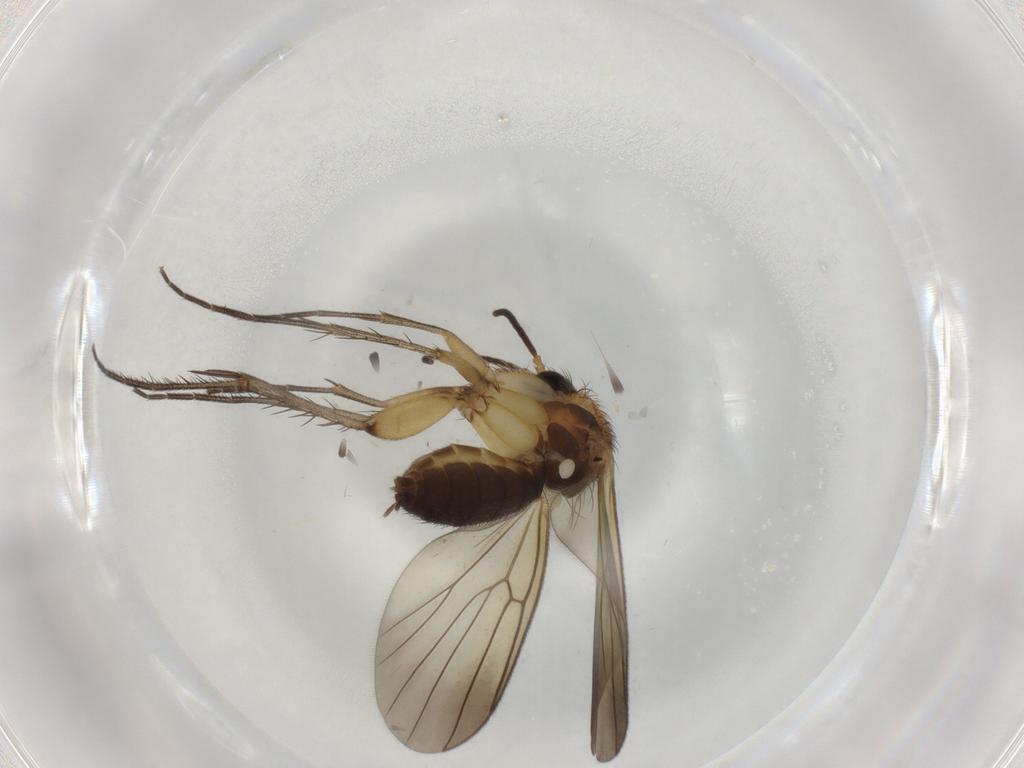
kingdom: Animalia
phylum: Arthropoda
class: Insecta
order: Diptera
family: Mycetophilidae
